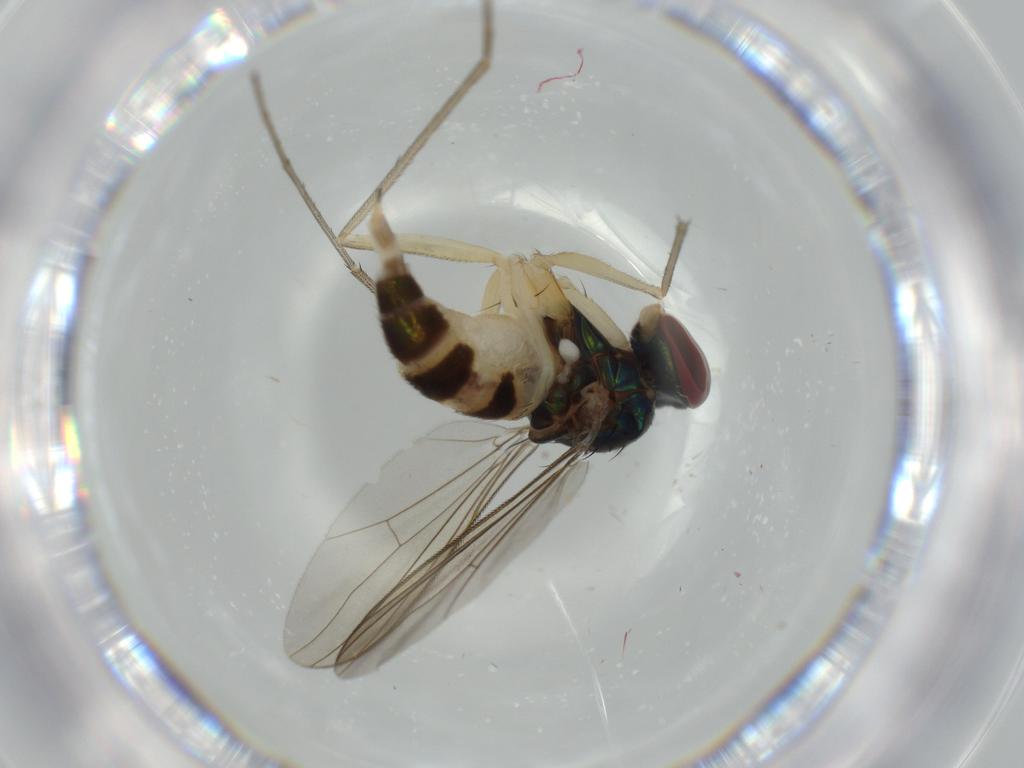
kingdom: Animalia
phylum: Arthropoda
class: Insecta
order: Diptera
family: Dolichopodidae
